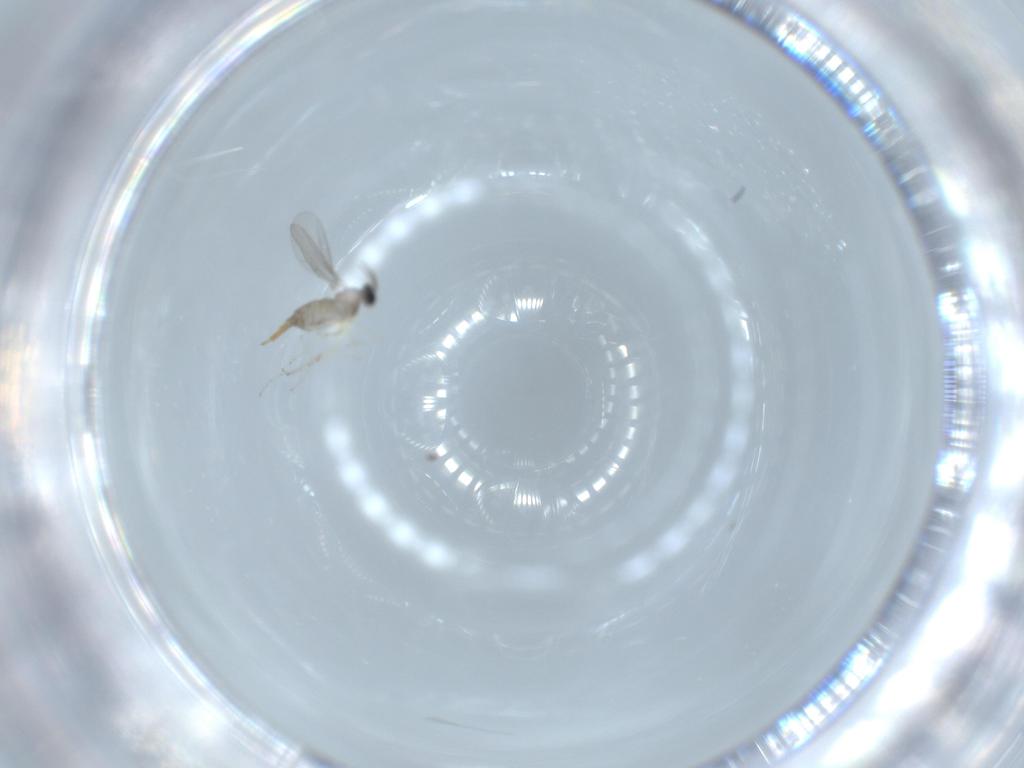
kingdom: Animalia
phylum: Arthropoda
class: Insecta
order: Diptera
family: Cecidomyiidae
